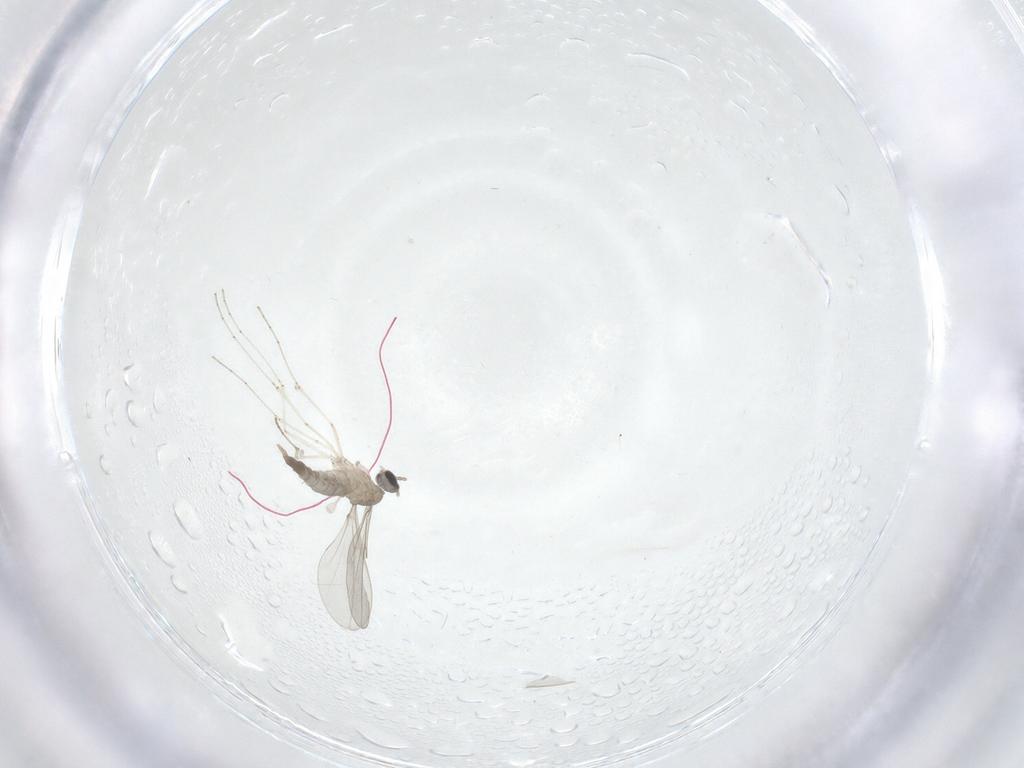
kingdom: Animalia
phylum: Arthropoda
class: Insecta
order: Diptera
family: Cecidomyiidae
